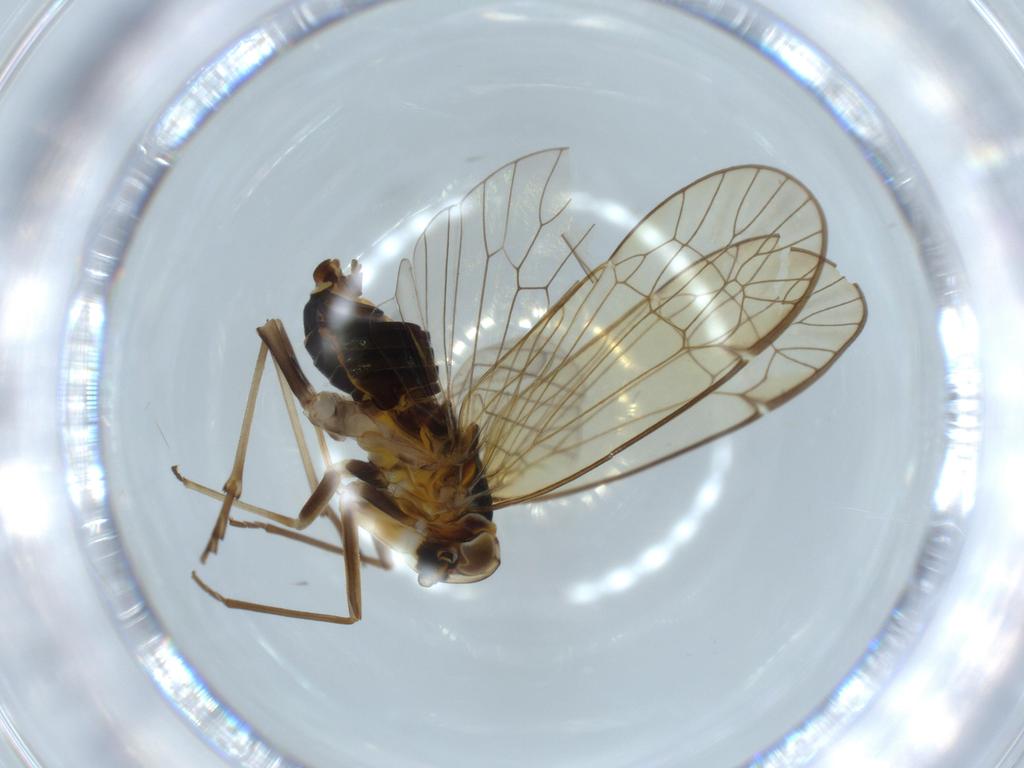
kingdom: Animalia
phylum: Arthropoda
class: Insecta
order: Hemiptera
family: Kinnaridae
